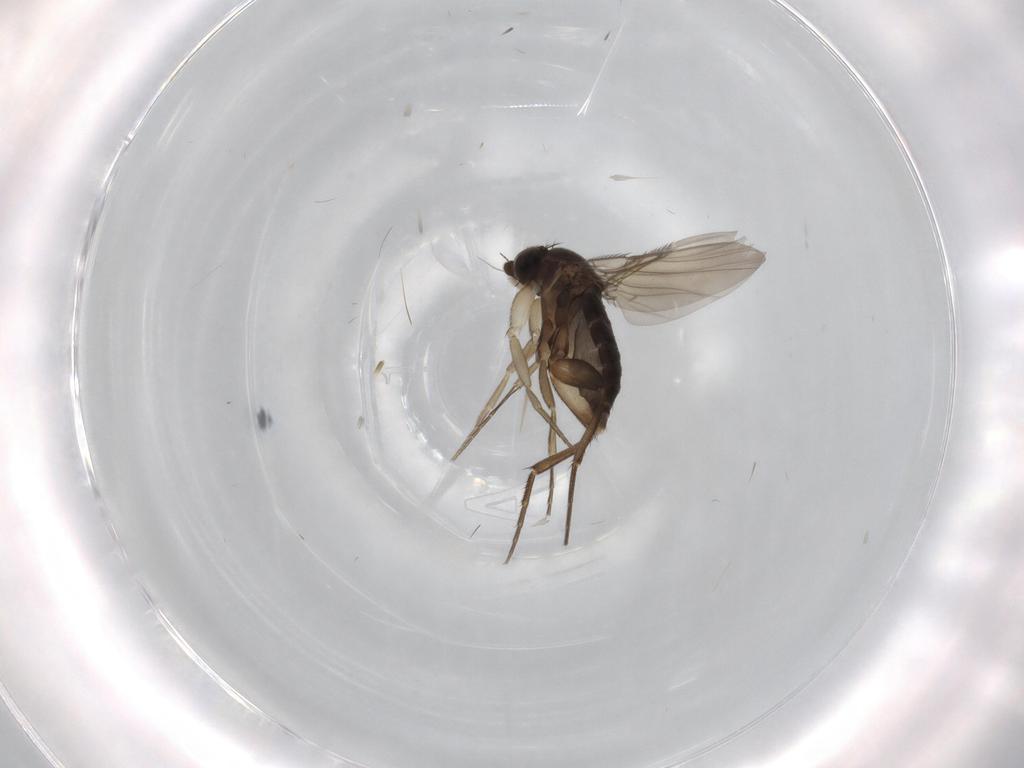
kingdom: Animalia
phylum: Arthropoda
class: Insecta
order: Diptera
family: Phoridae
